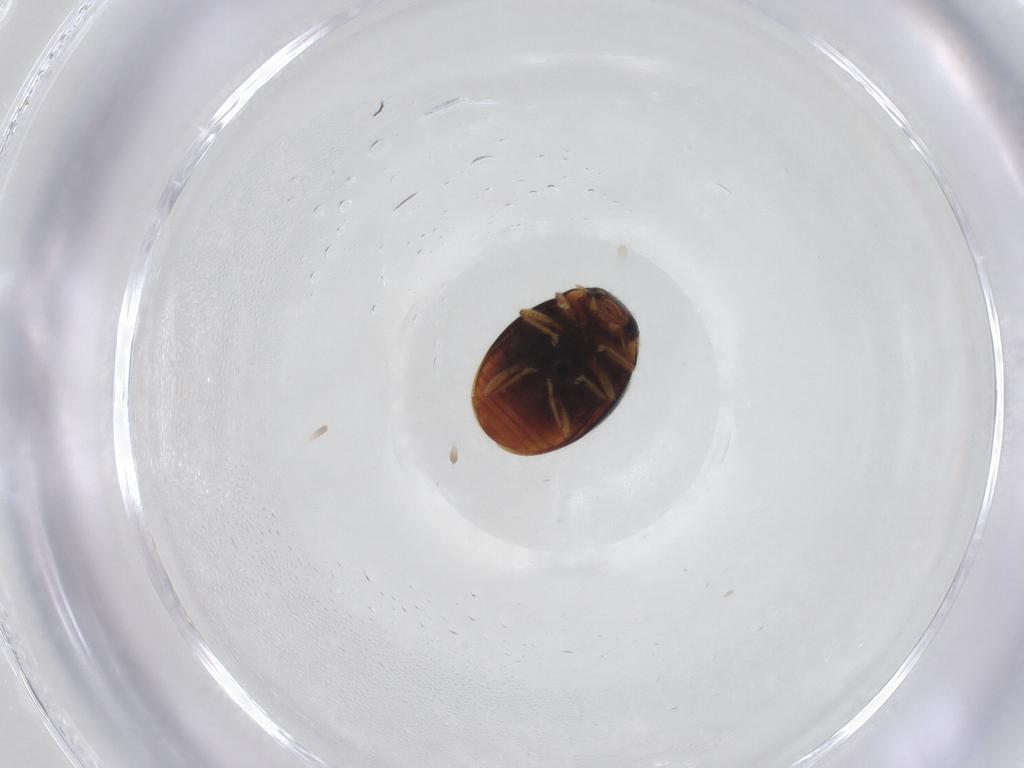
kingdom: Animalia
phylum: Arthropoda
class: Insecta
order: Coleoptera
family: Coccinellidae
